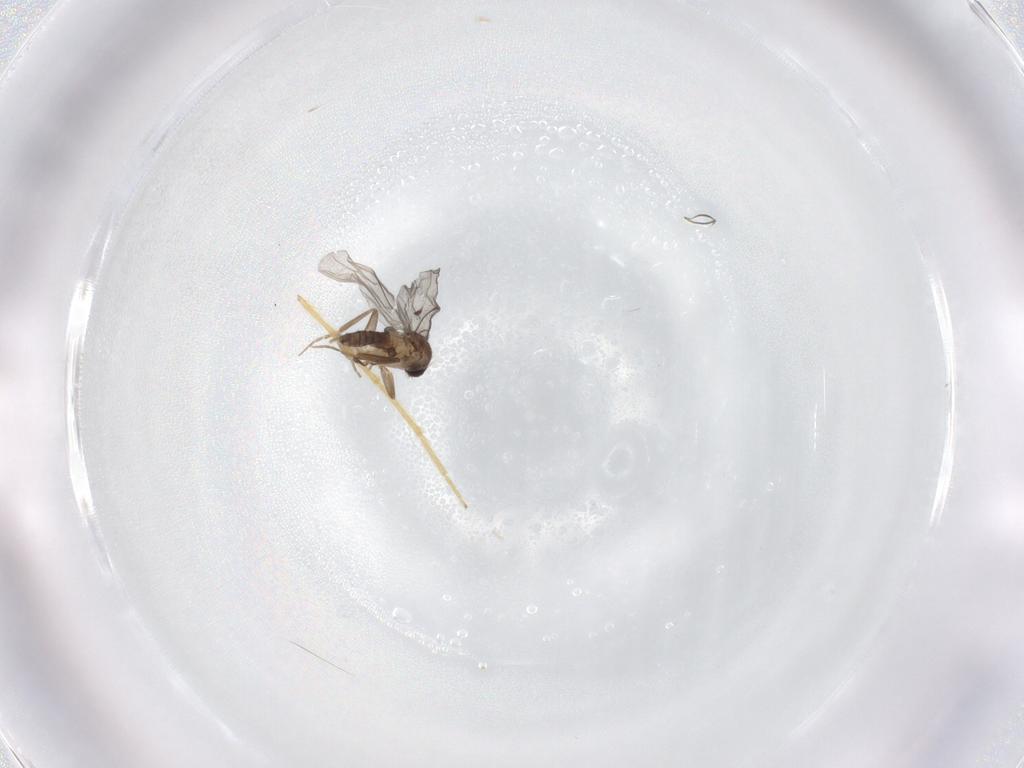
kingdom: Animalia
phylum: Arthropoda
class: Insecta
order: Diptera
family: Chironomidae
